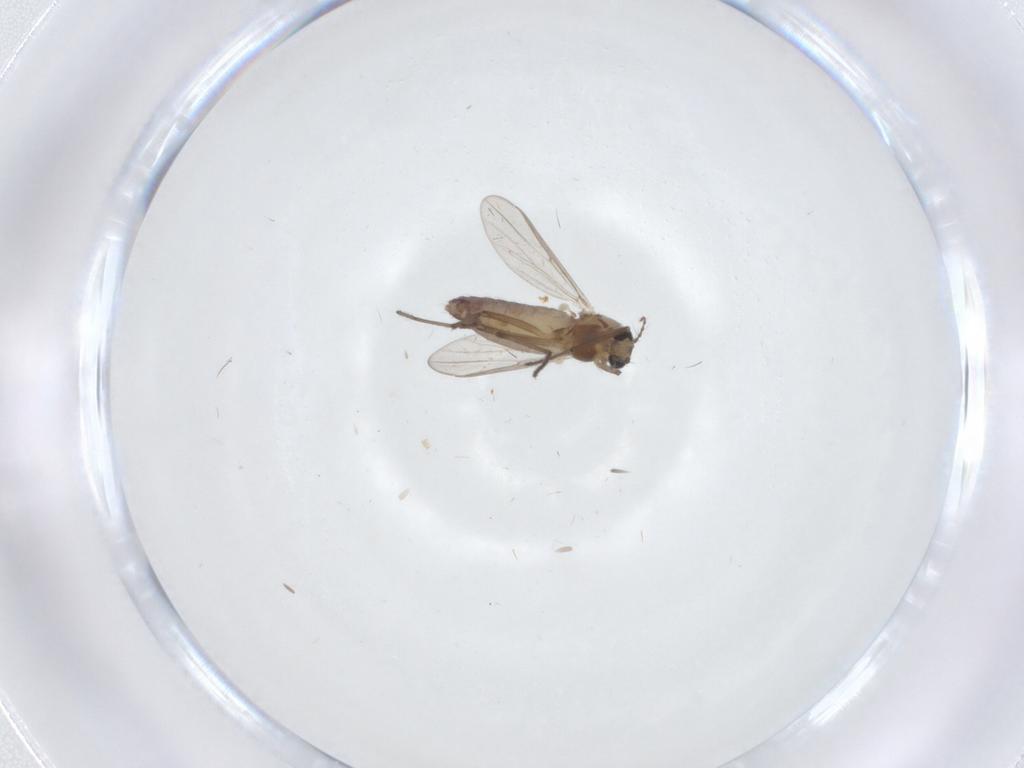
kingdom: Animalia
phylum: Arthropoda
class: Insecta
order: Diptera
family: Chironomidae
